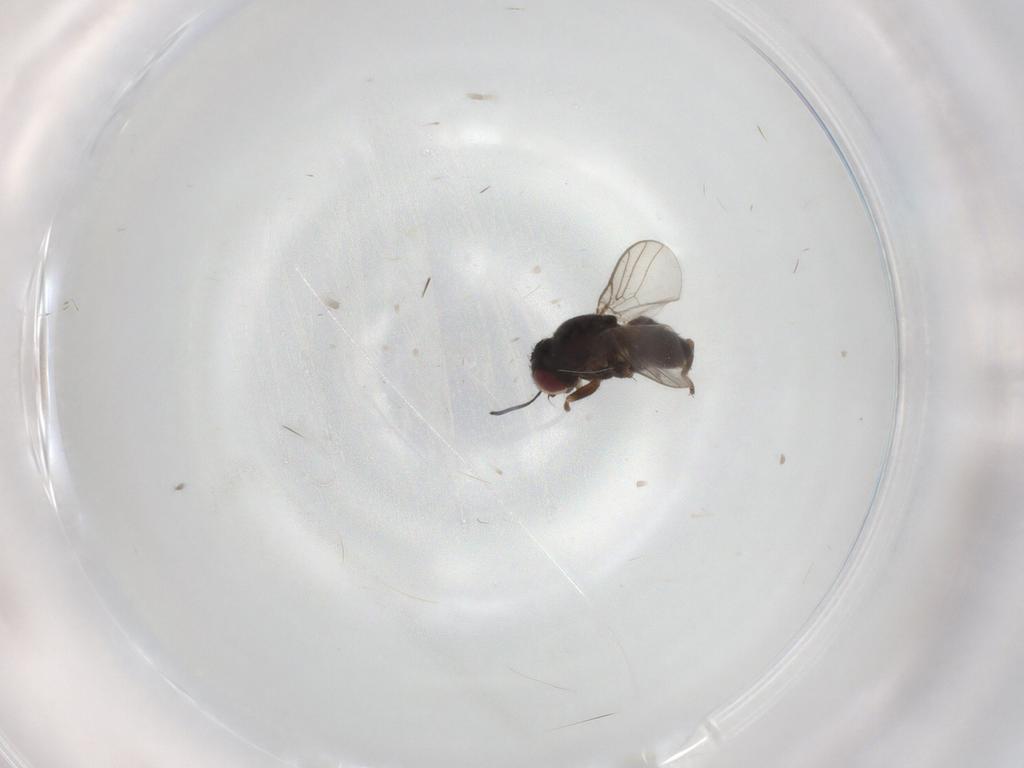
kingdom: Animalia
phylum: Arthropoda
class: Insecta
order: Diptera
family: Chloropidae
